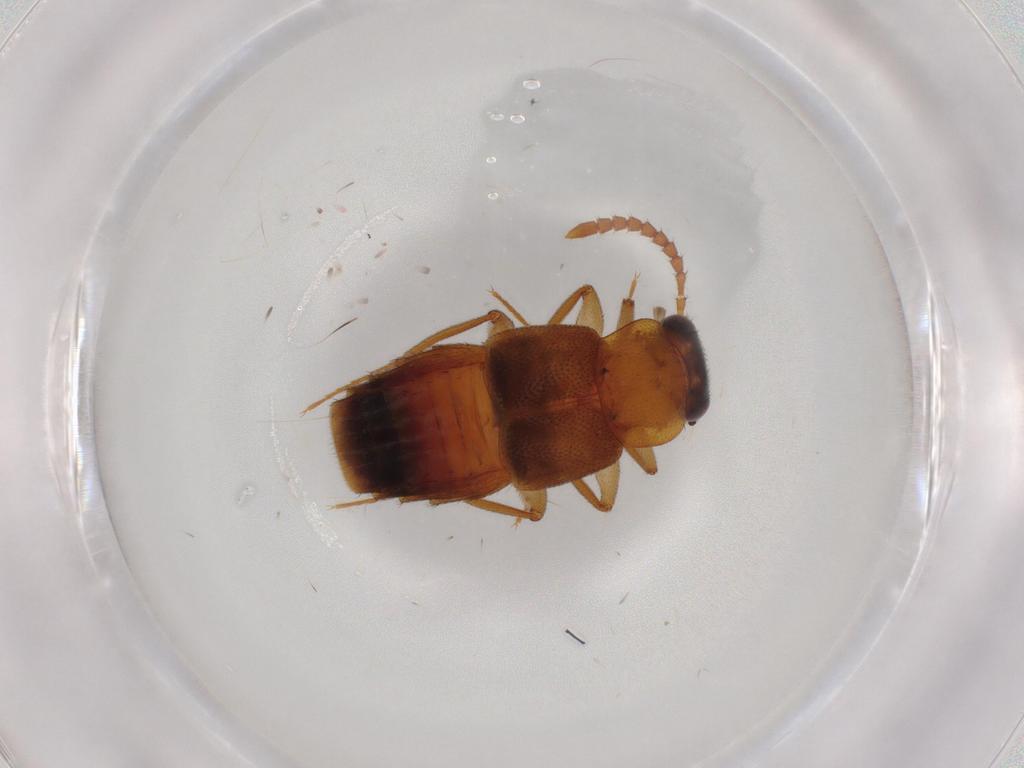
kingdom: Animalia
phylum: Arthropoda
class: Insecta
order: Coleoptera
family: Staphylinidae
